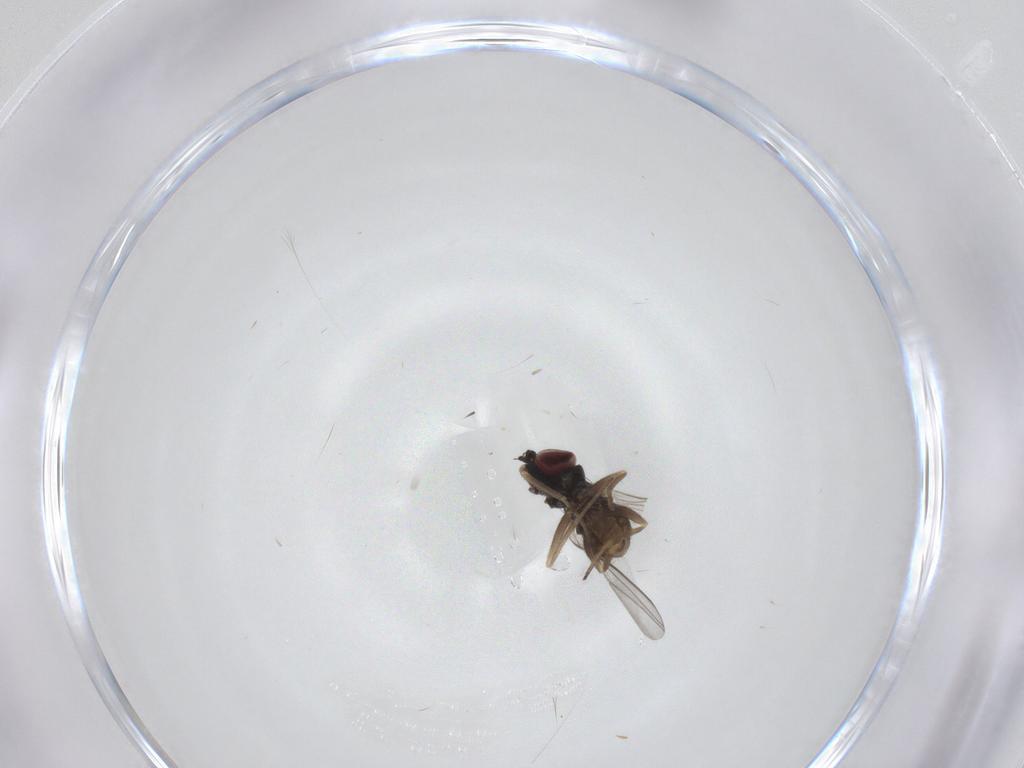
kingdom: Animalia
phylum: Arthropoda
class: Insecta
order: Diptera
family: Dolichopodidae
